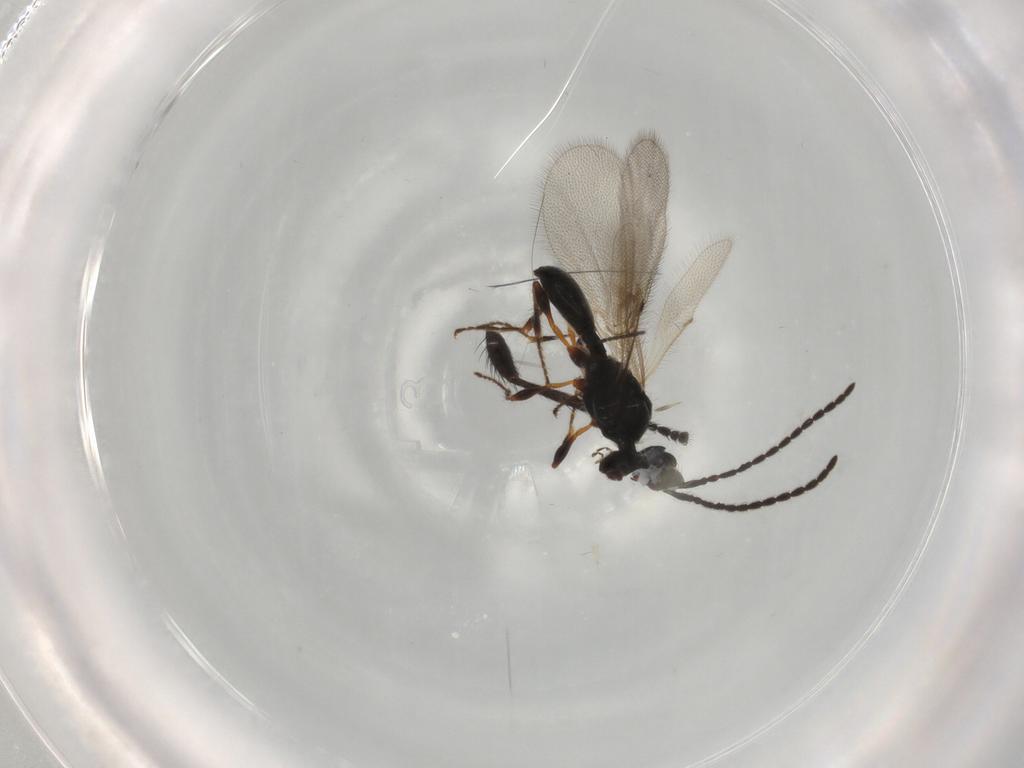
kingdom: Animalia
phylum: Arthropoda
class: Insecta
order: Hymenoptera
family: Diapriidae
